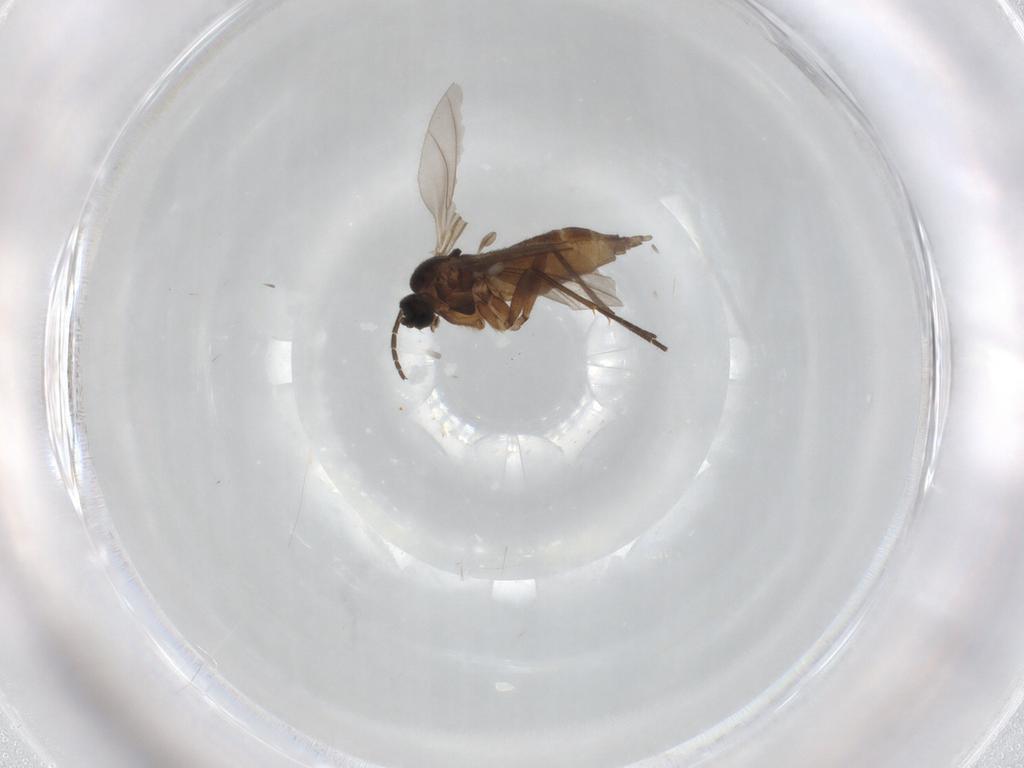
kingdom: Animalia
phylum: Arthropoda
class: Insecta
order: Diptera
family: Sciaridae
